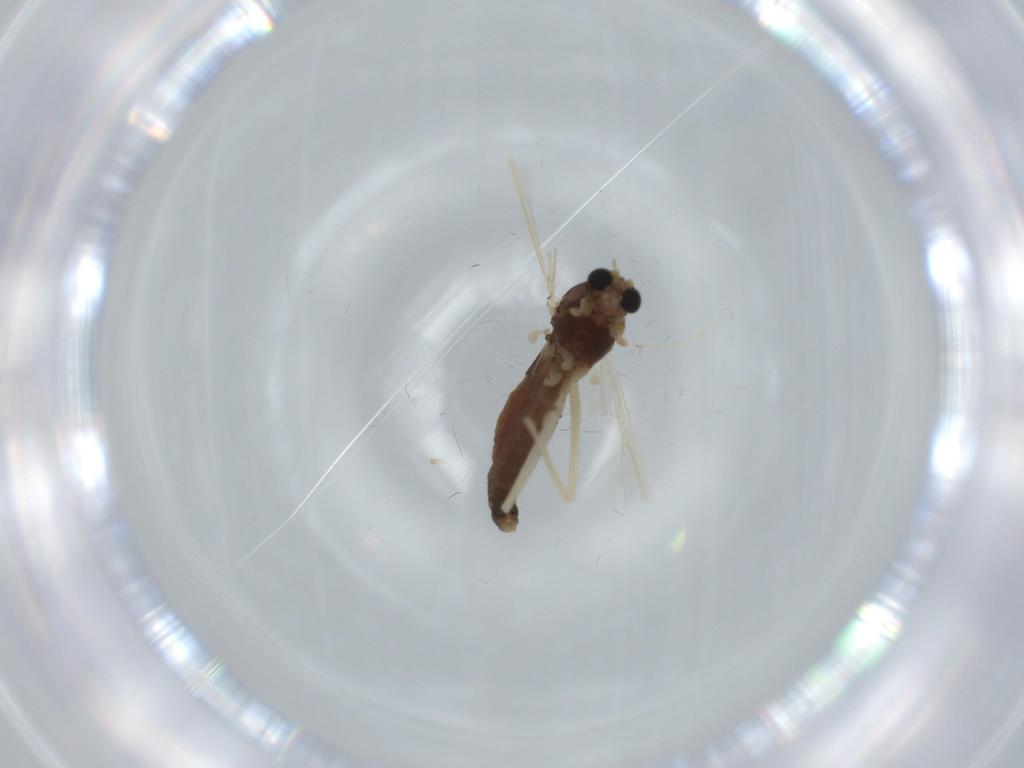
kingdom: Animalia
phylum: Arthropoda
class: Insecta
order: Diptera
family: Chironomidae
